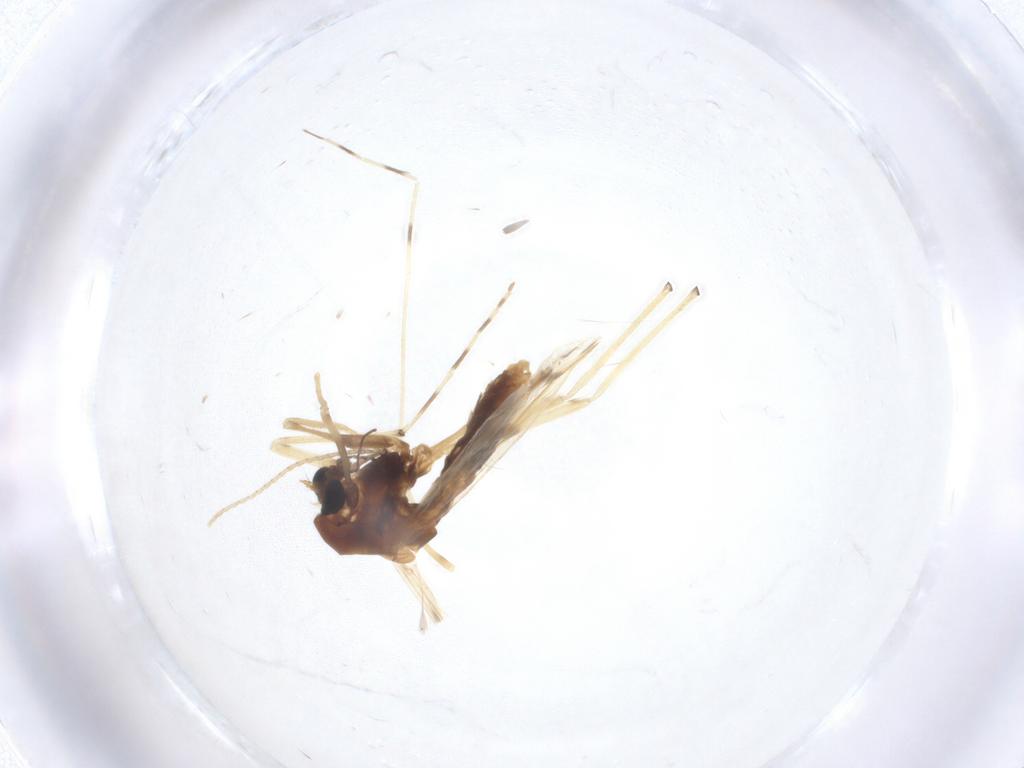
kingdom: Animalia
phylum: Arthropoda
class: Insecta
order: Diptera
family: Chironomidae
